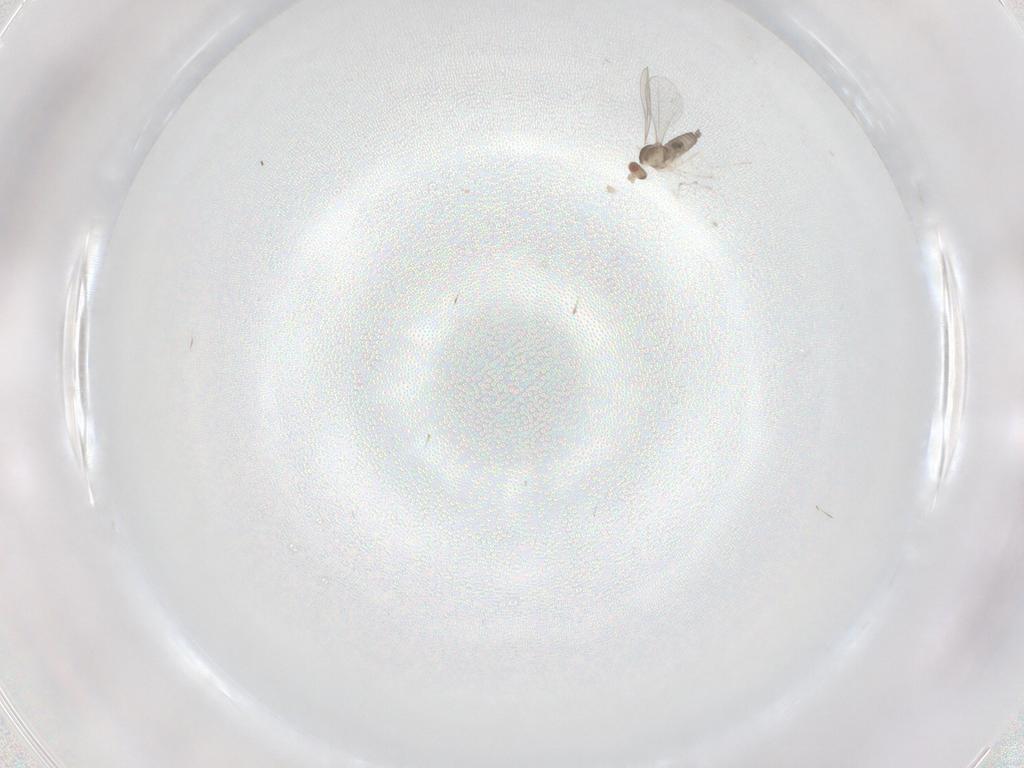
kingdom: Animalia
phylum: Arthropoda
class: Insecta
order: Diptera
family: Cecidomyiidae
